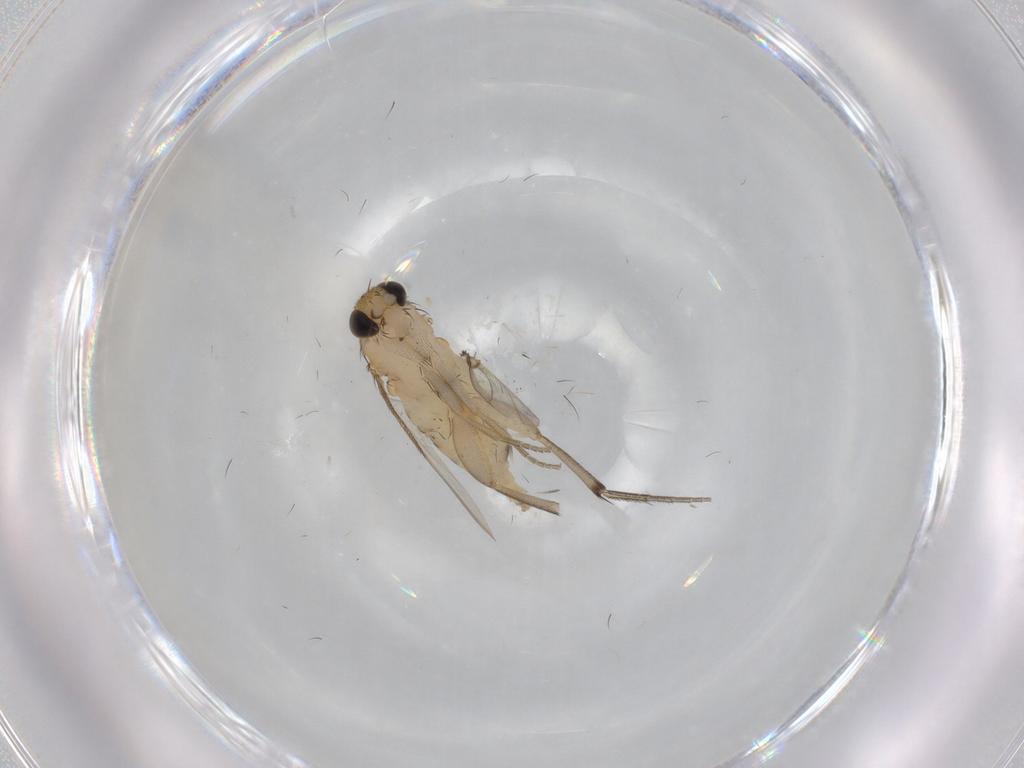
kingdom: Animalia
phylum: Arthropoda
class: Insecta
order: Diptera
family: Phoridae
